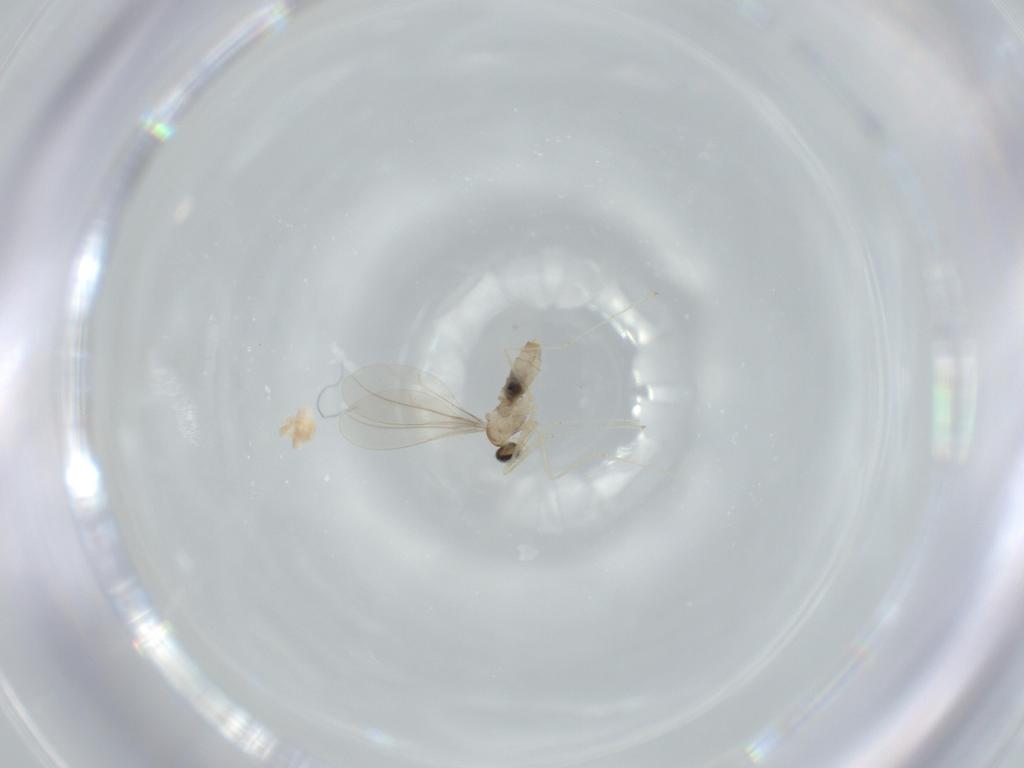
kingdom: Animalia
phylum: Arthropoda
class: Insecta
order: Diptera
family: Cecidomyiidae
